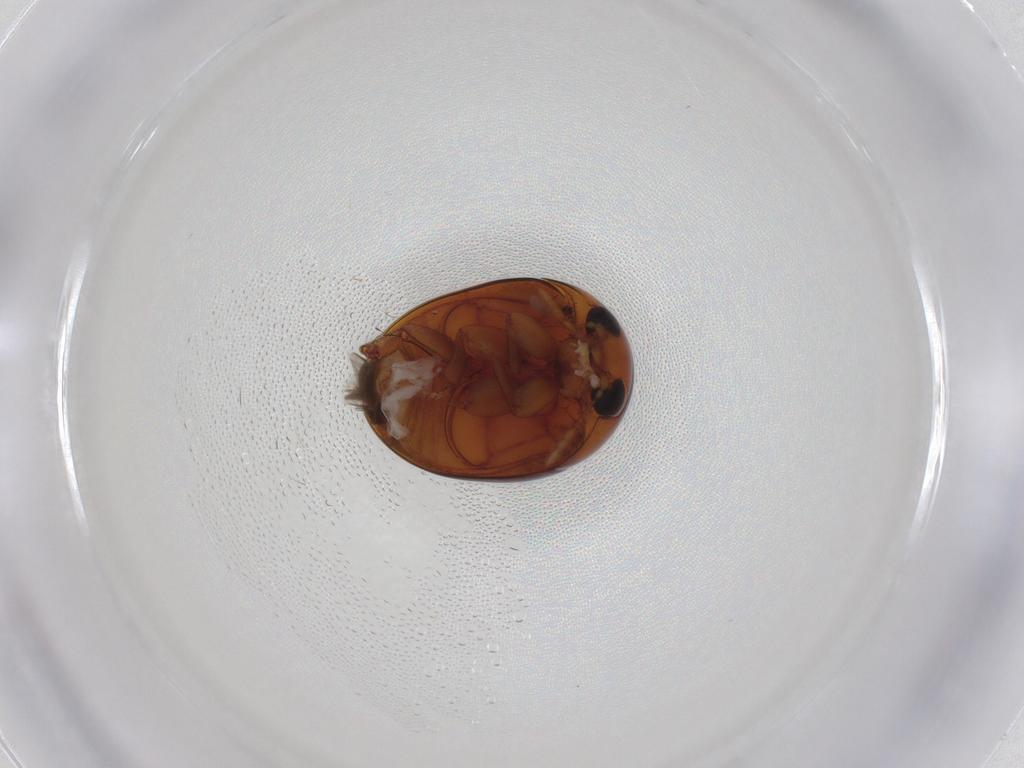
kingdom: Animalia
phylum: Arthropoda
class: Insecta
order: Coleoptera
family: Phalacridae
